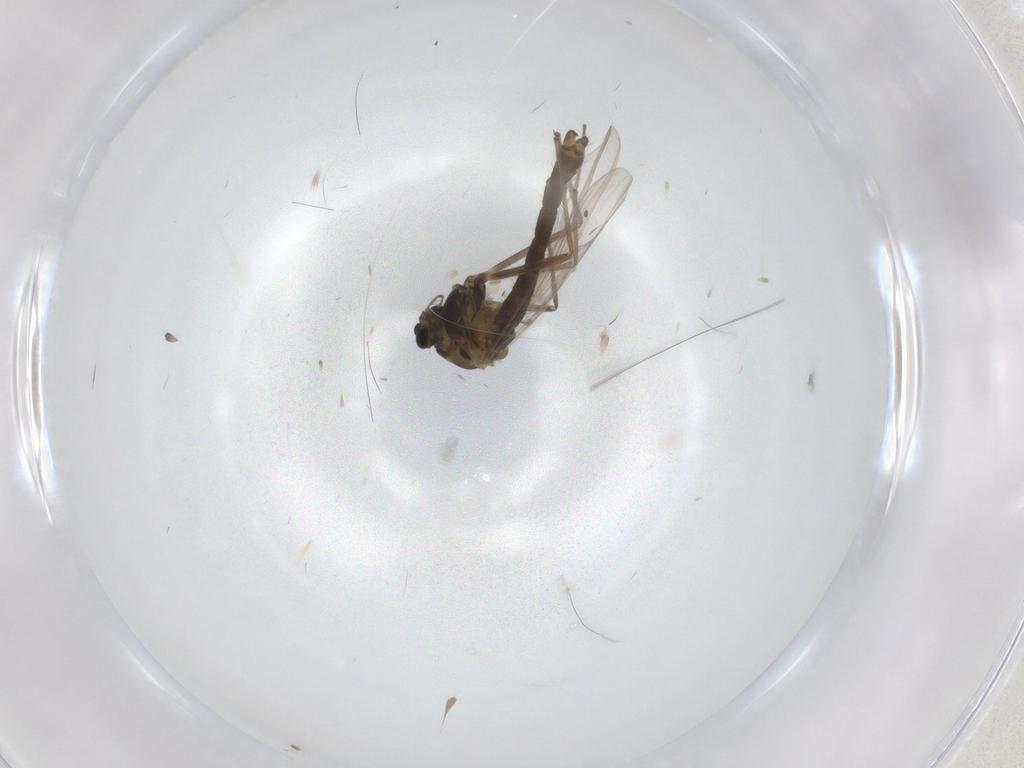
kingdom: Animalia
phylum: Arthropoda
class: Insecta
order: Diptera
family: Chironomidae
